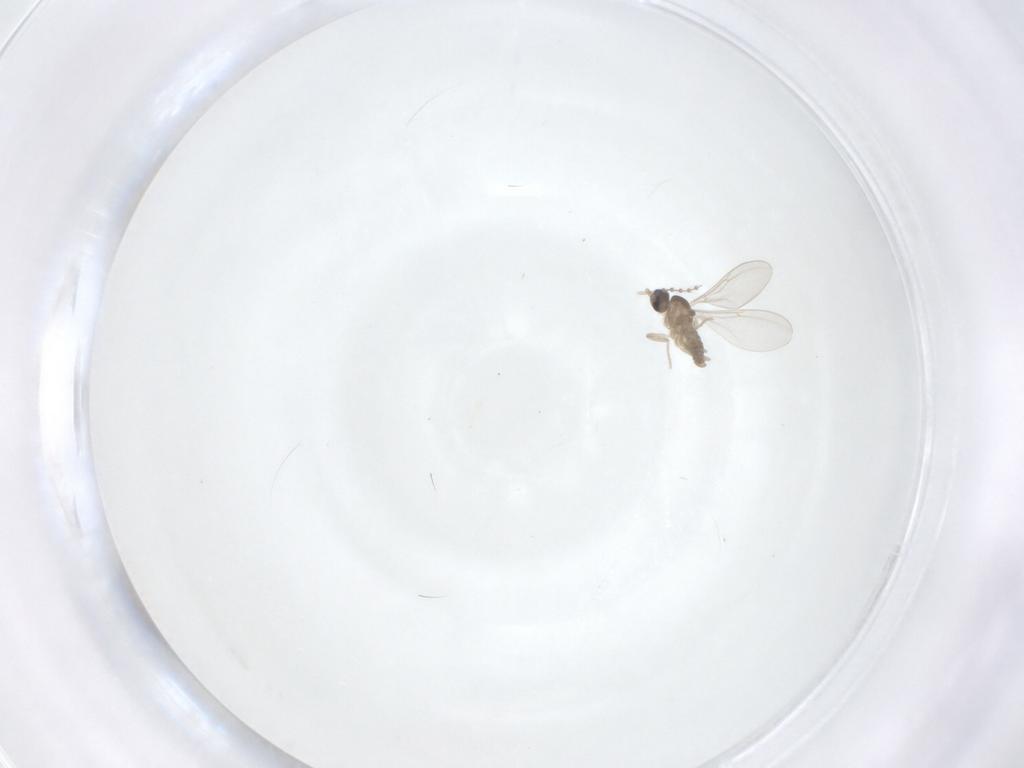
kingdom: Animalia
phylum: Arthropoda
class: Insecta
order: Diptera
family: Cecidomyiidae
